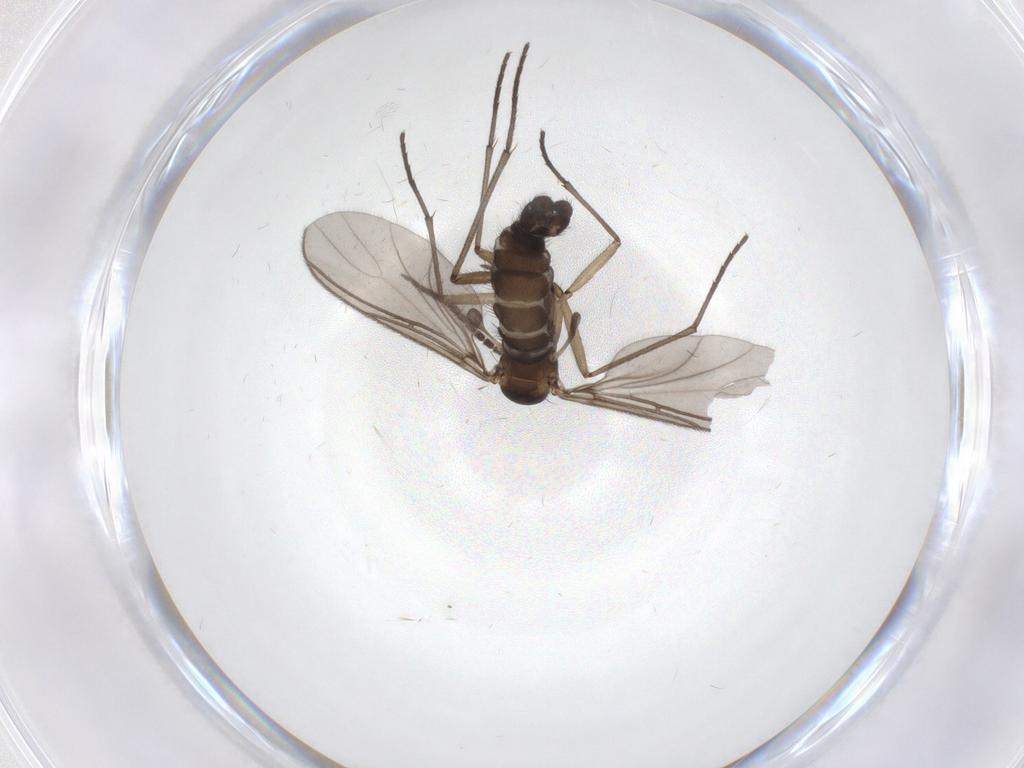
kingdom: Animalia
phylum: Arthropoda
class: Insecta
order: Diptera
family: Sciaridae
